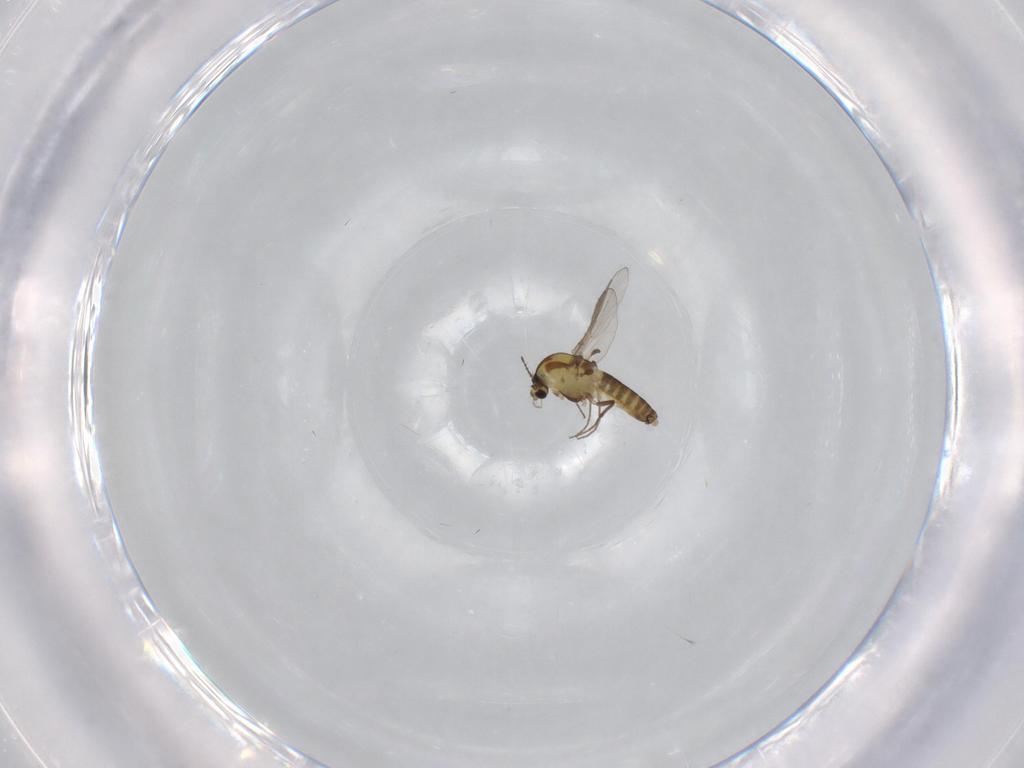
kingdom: Animalia
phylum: Arthropoda
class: Insecta
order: Diptera
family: Chironomidae
